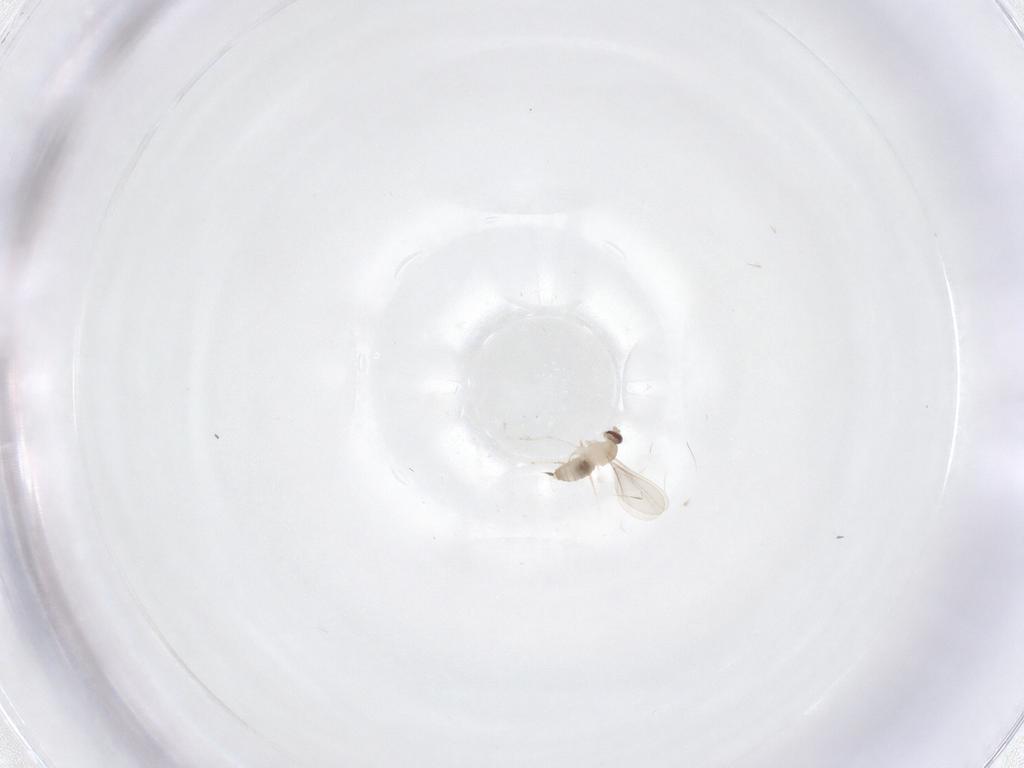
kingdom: Animalia
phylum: Arthropoda
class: Insecta
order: Diptera
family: Cecidomyiidae
